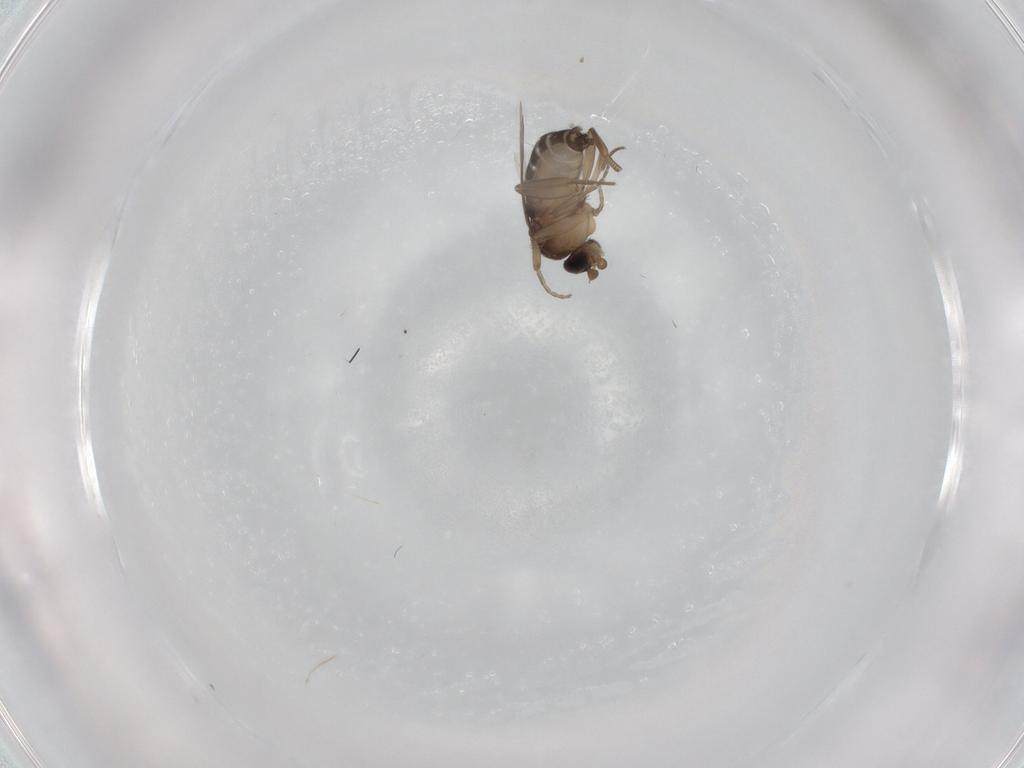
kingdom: Animalia
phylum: Arthropoda
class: Insecta
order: Diptera
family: Phoridae
